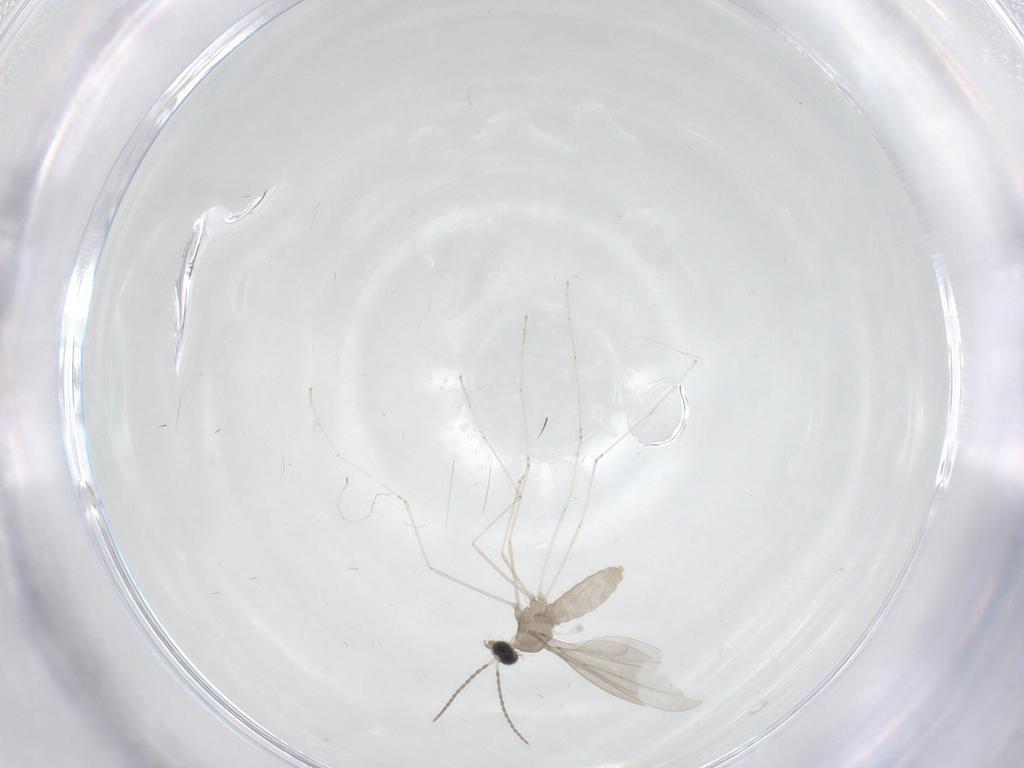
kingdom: Animalia
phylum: Arthropoda
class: Insecta
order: Diptera
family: Cecidomyiidae
